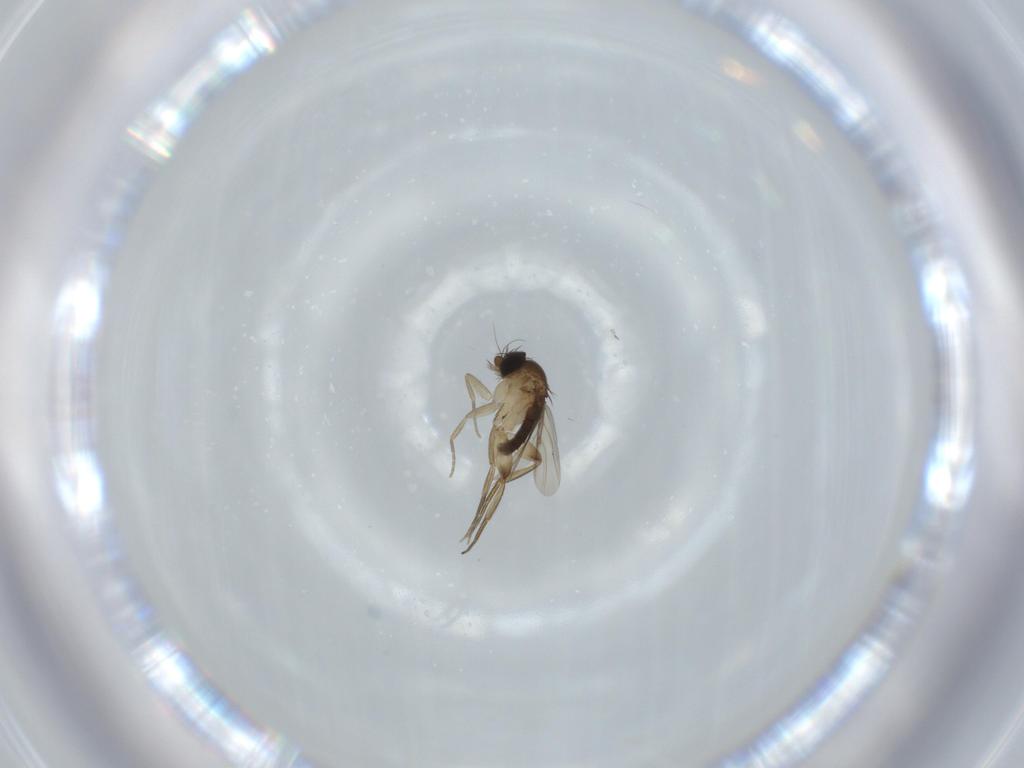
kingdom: Animalia
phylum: Arthropoda
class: Insecta
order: Diptera
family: Phoridae
